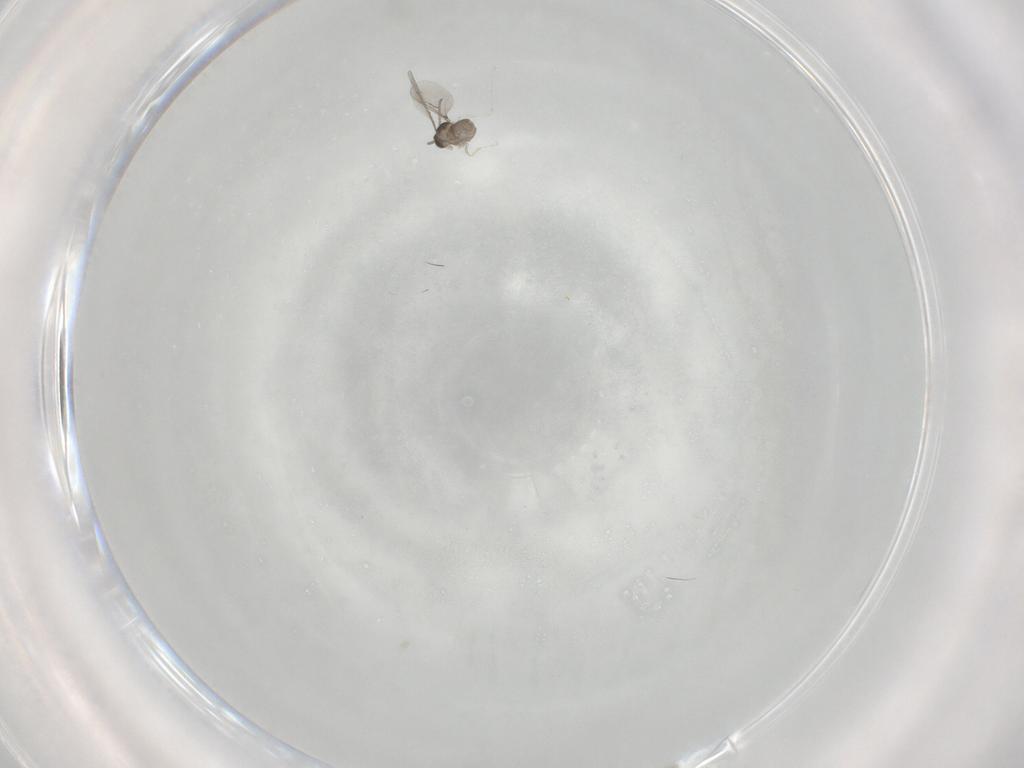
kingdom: Animalia
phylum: Arthropoda
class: Insecta
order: Diptera
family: Cecidomyiidae
